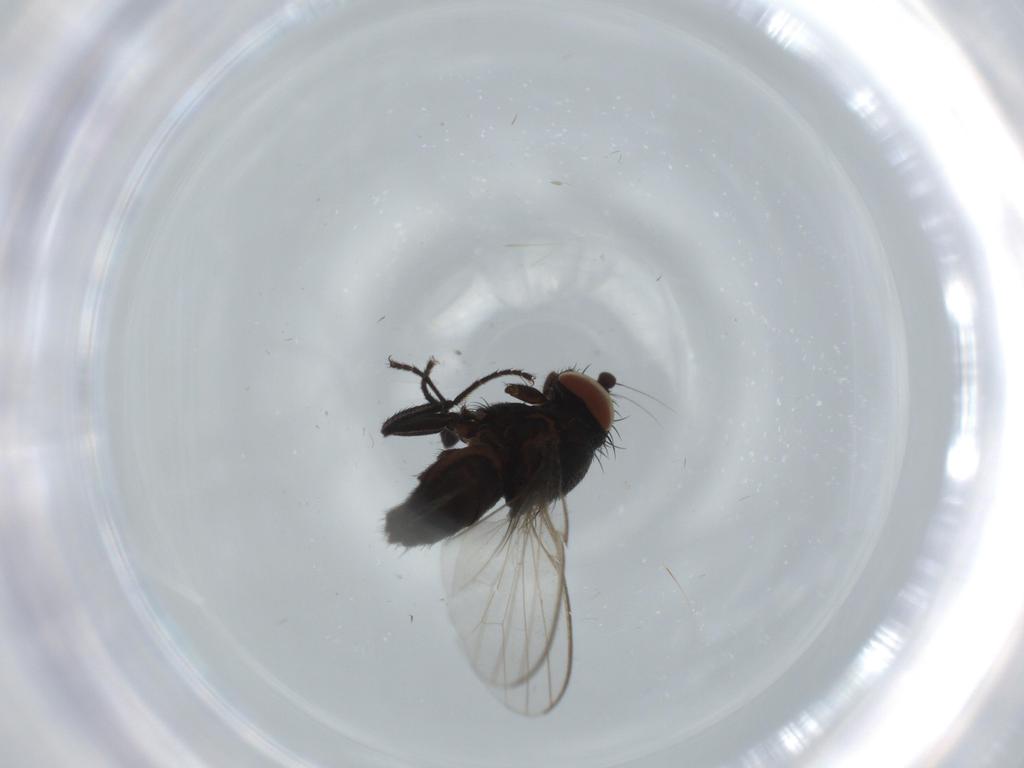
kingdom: Animalia
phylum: Arthropoda
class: Insecta
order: Diptera
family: Milichiidae
